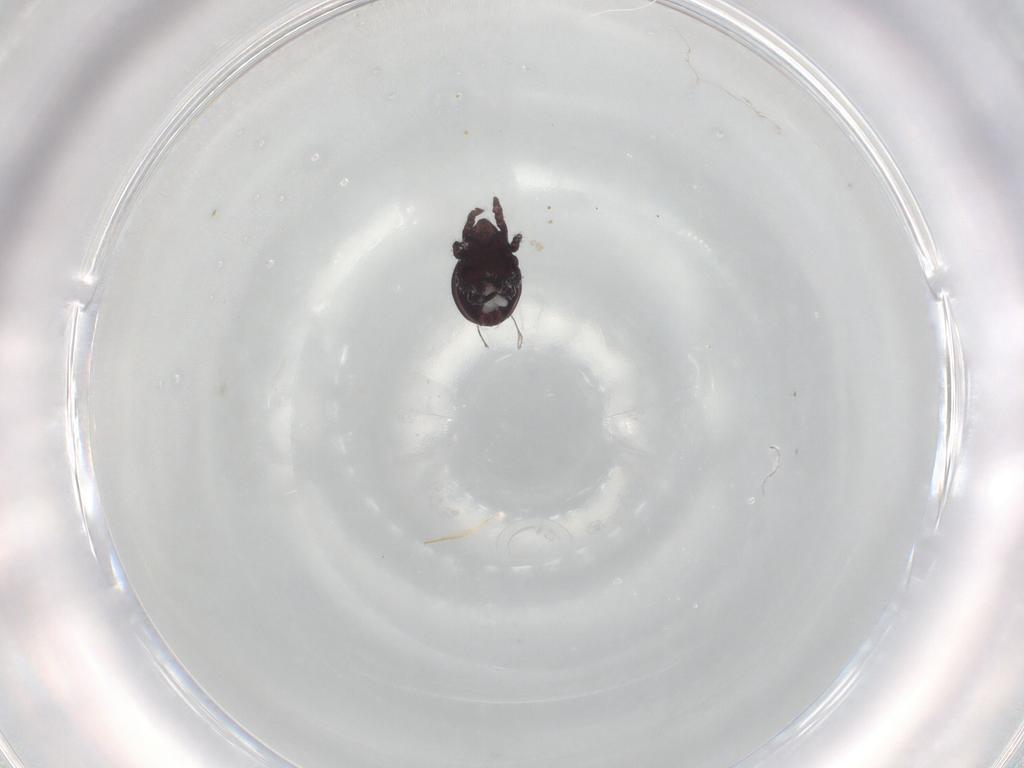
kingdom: Animalia
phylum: Arthropoda
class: Arachnida
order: Sarcoptiformes
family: Hermanniidae
